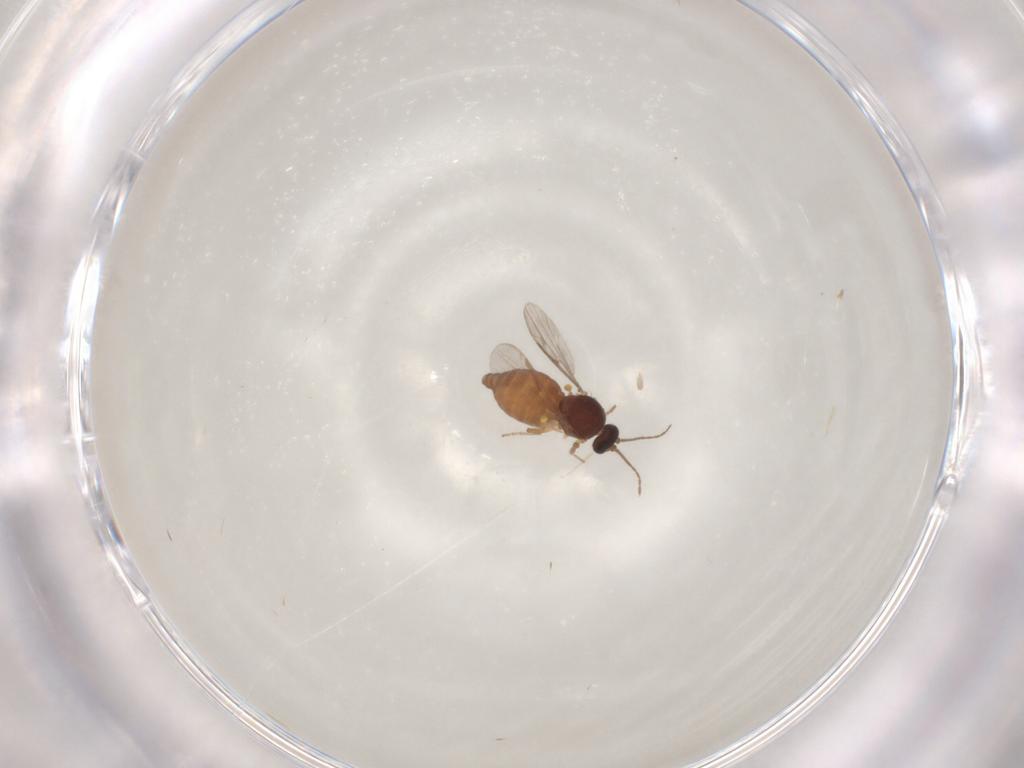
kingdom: Animalia
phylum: Arthropoda
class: Insecta
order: Diptera
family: Ceratopogonidae
